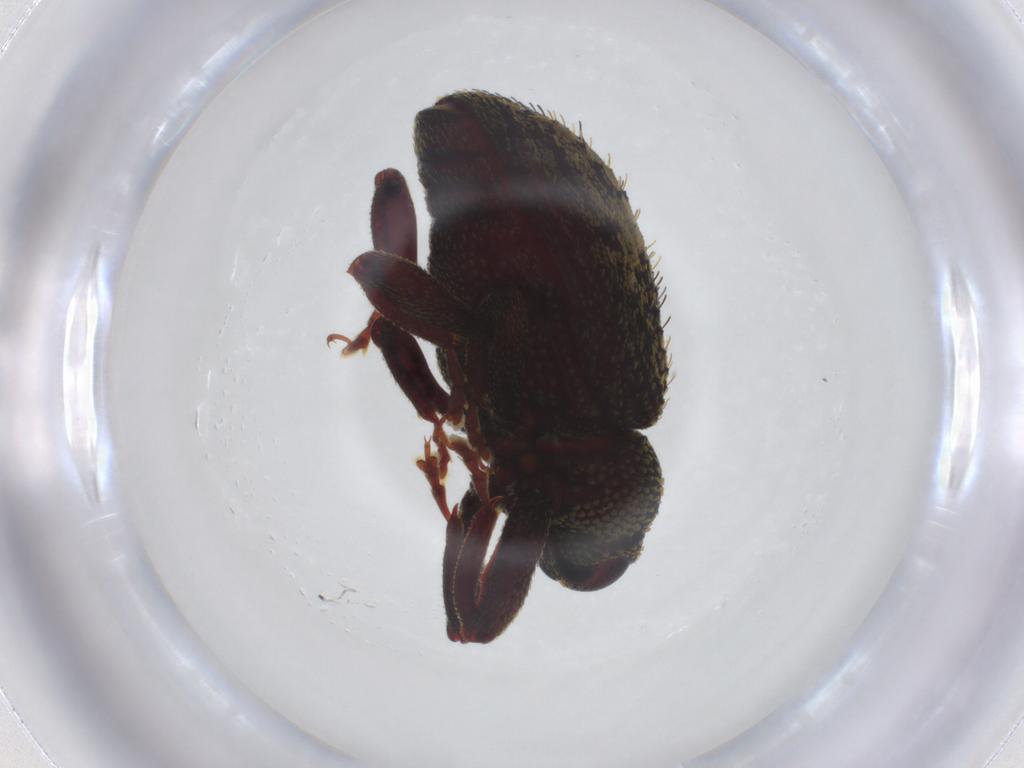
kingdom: Animalia
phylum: Arthropoda
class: Insecta
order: Coleoptera
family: Curculionidae
